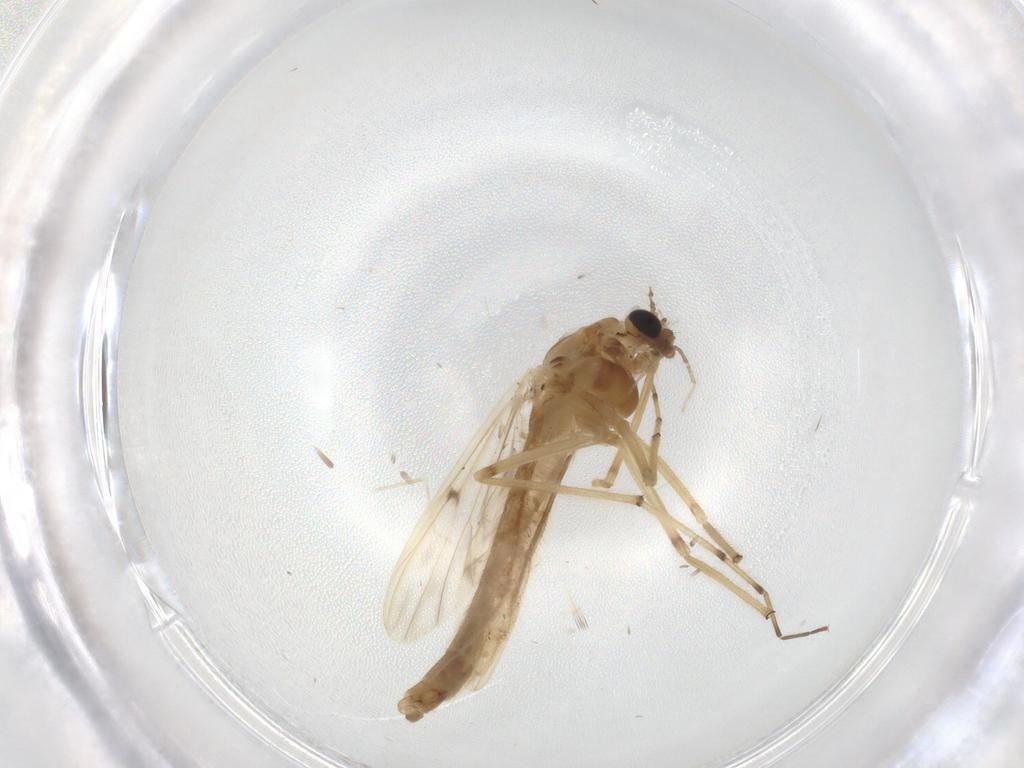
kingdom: Animalia
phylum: Arthropoda
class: Insecta
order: Diptera
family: Chironomidae
